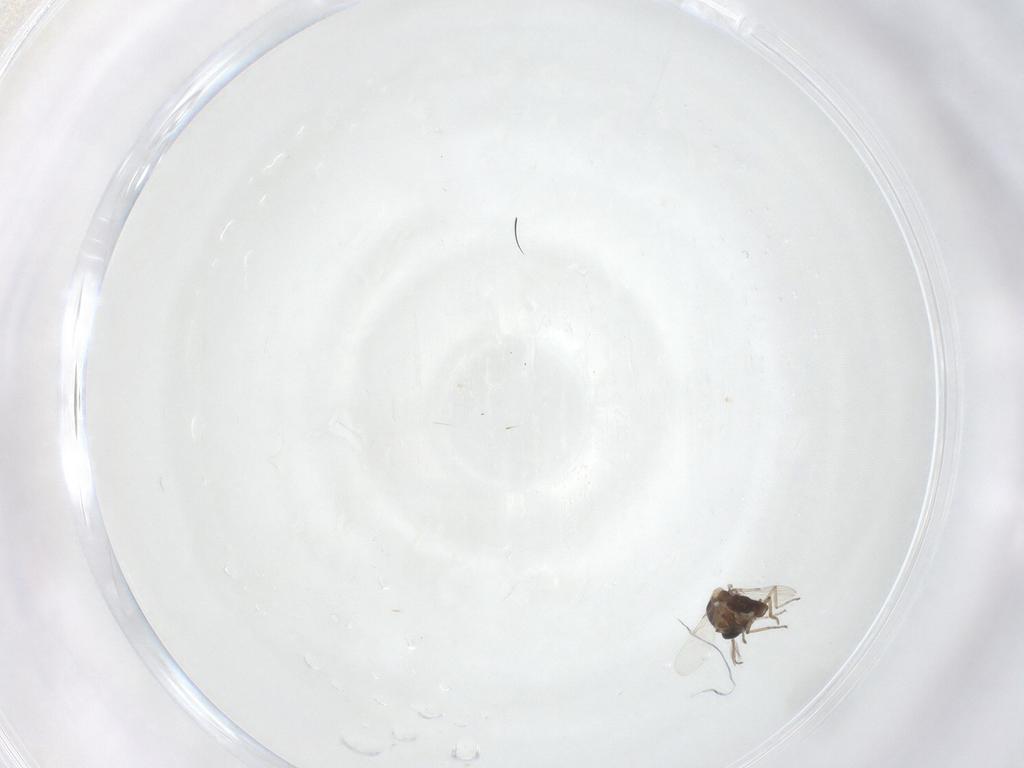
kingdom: Animalia
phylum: Arthropoda
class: Insecta
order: Diptera
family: Ceratopogonidae
